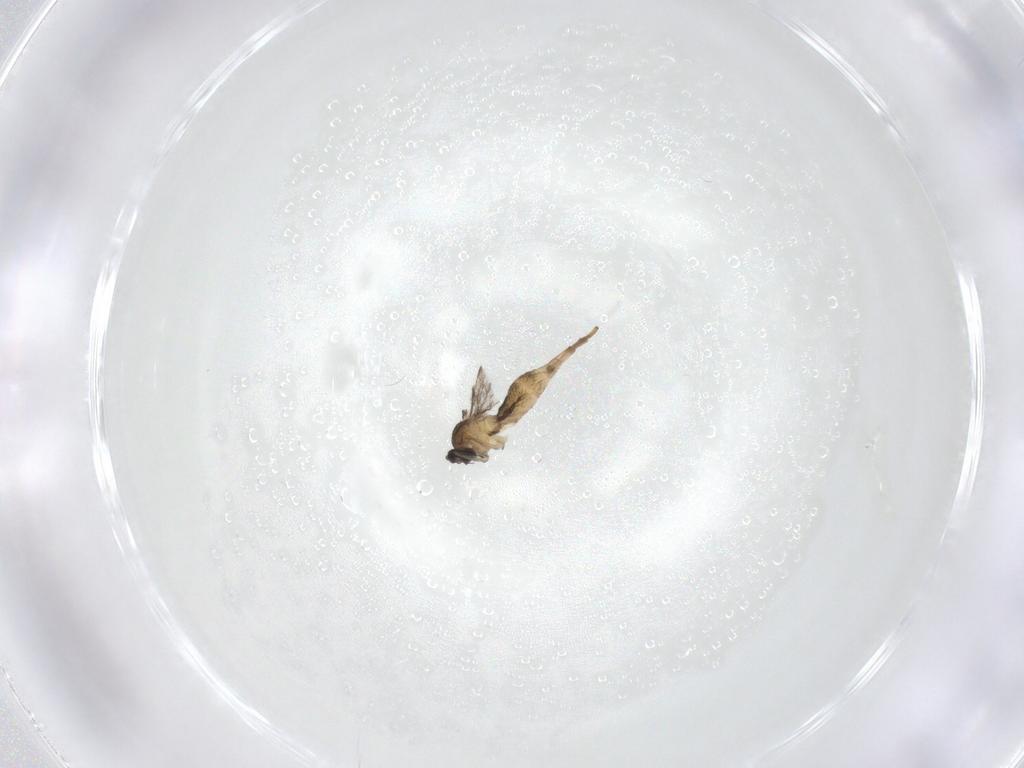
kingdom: Animalia
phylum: Arthropoda
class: Insecta
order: Diptera
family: Cecidomyiidae
